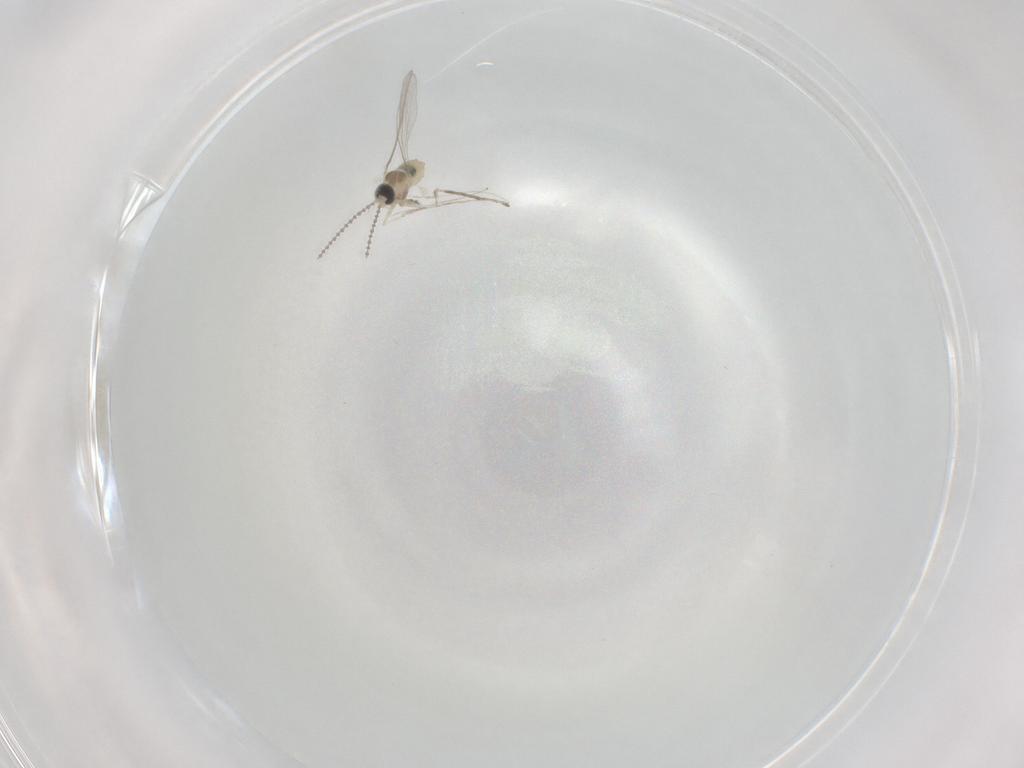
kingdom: Animalia
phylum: Arthropoda
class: Insecta
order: Diptera
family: Cecidomyiidae
